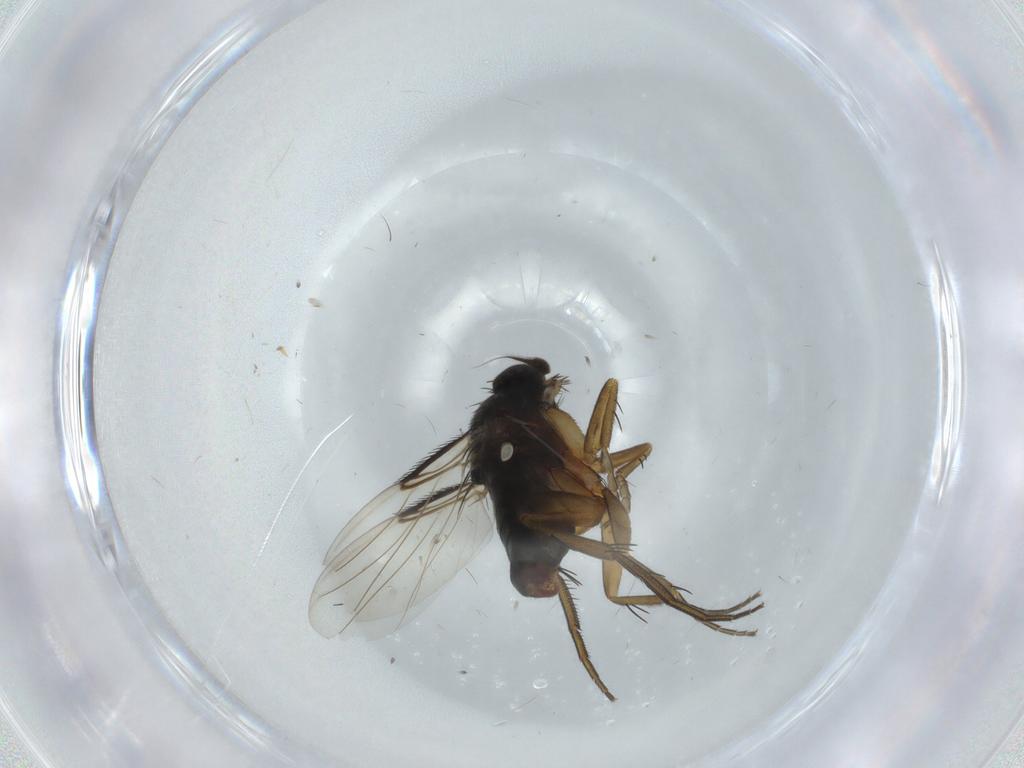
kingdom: Animalia
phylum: Arthropoda
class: Insecta
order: Diptera
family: Phoridae
